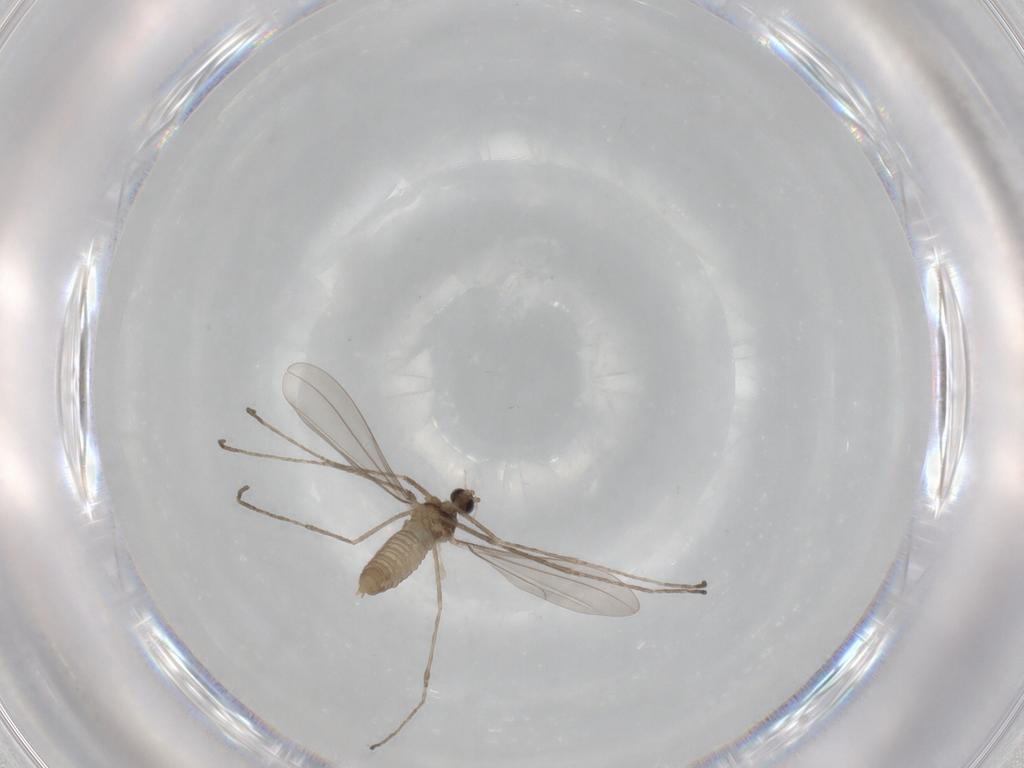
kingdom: Animalia
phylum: Arthropoda
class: Insecta
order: Diptera
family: Cecidomyiidae
